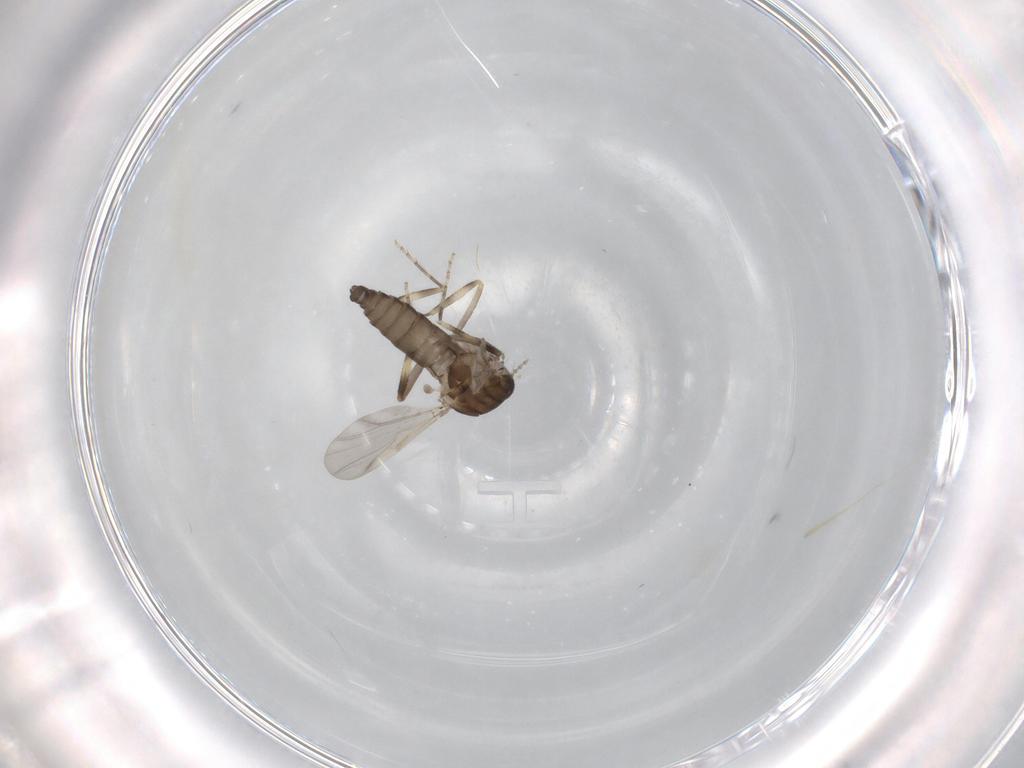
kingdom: Animalia
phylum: Arthropoda
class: Insecta
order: Diptera
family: Ceratopogonidae
